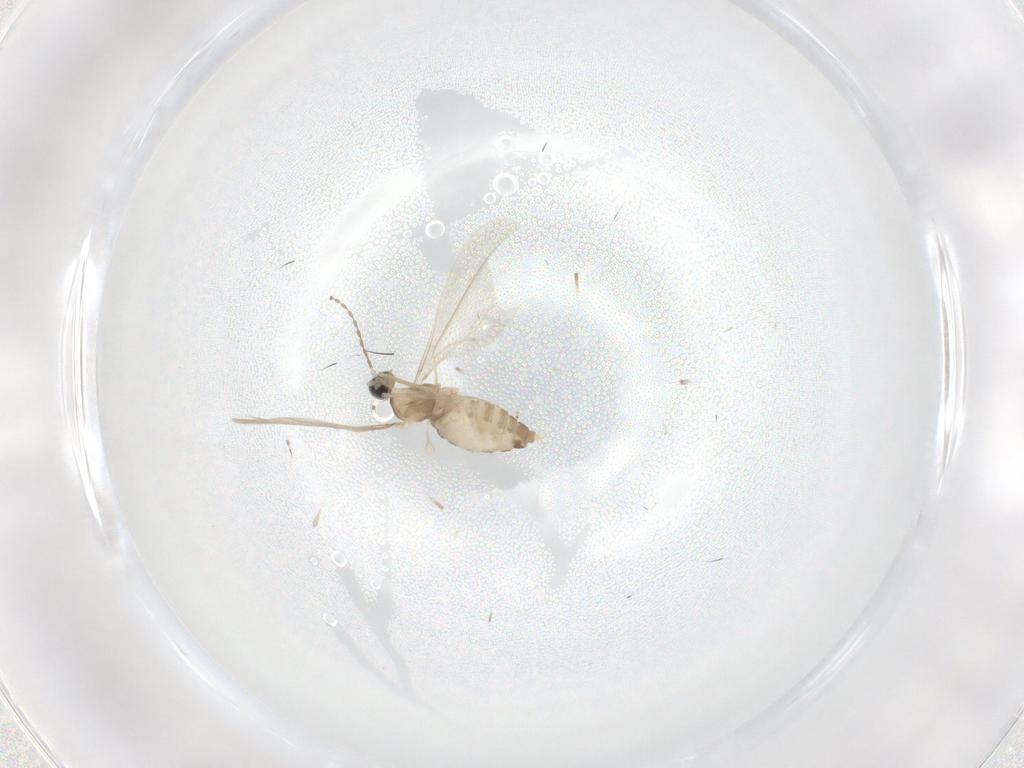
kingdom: Animalia
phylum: Arthropoda
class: Insecta
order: Diptera
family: Cecidomyiidae
